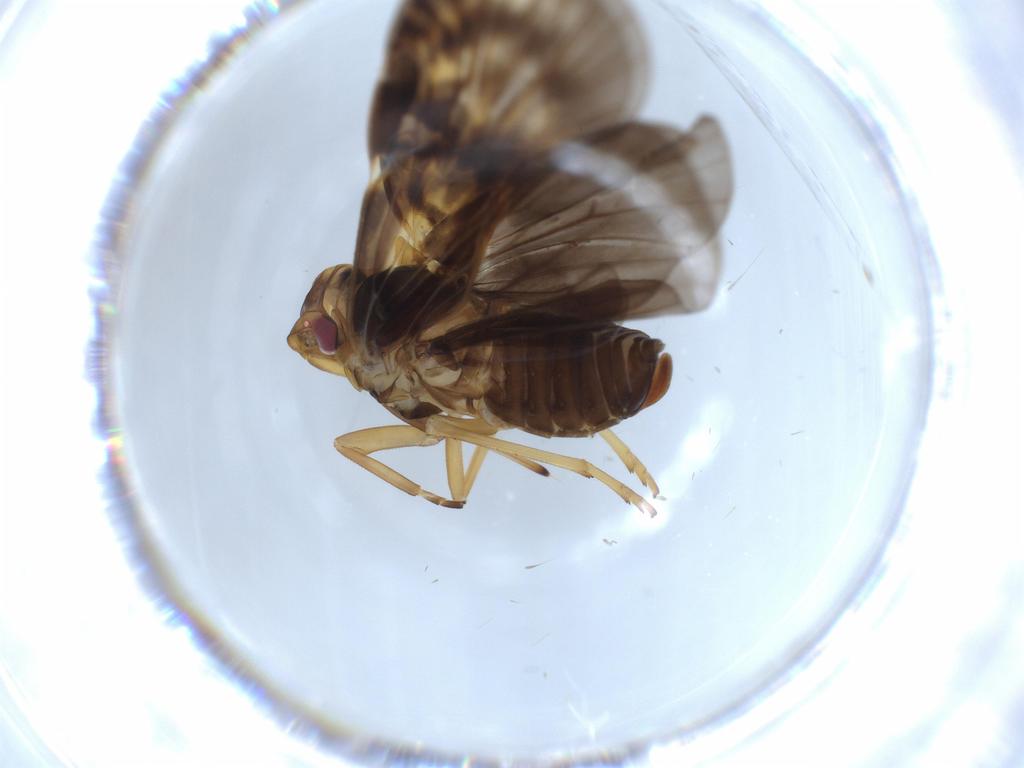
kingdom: Animalia
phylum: Arthropoda
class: Insecta
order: Hemiptera
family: Cixiidae
